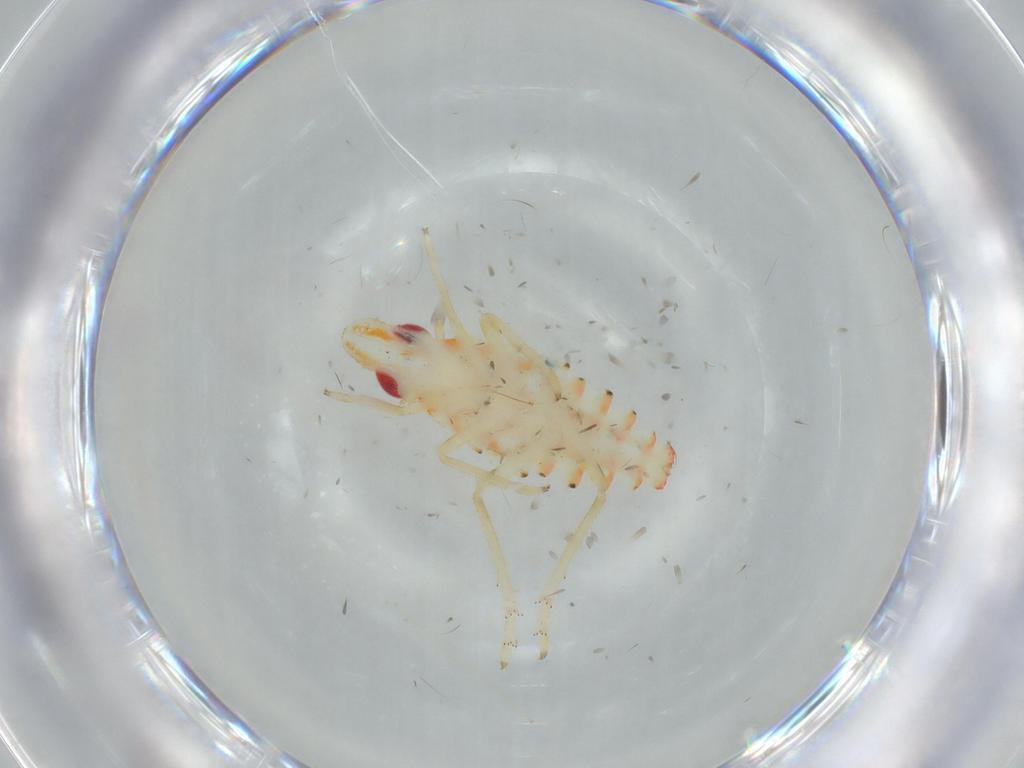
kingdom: Animalia
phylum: Arthropoda
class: Insecta
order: Hemiptera
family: Tropiduchidae
